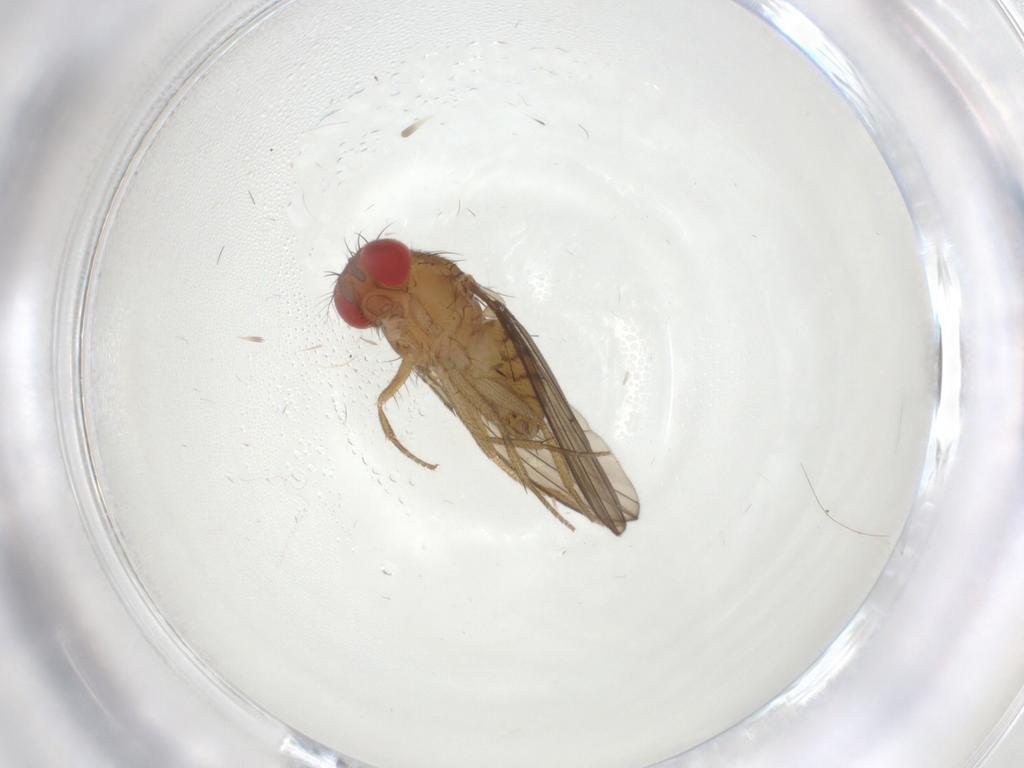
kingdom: Animalia
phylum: Arthropoda
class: Insecta
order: Diptera
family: Drosophilidae
